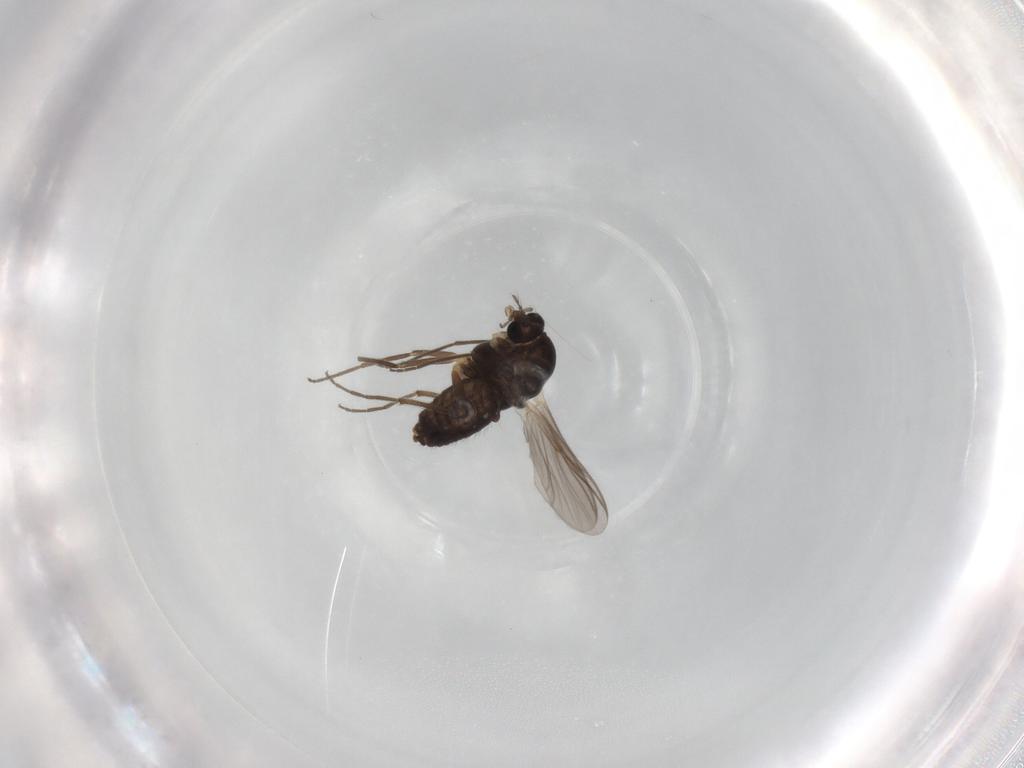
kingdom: Animalia
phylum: Arthropoda
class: Insecta
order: Diptera
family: Chironomidae
